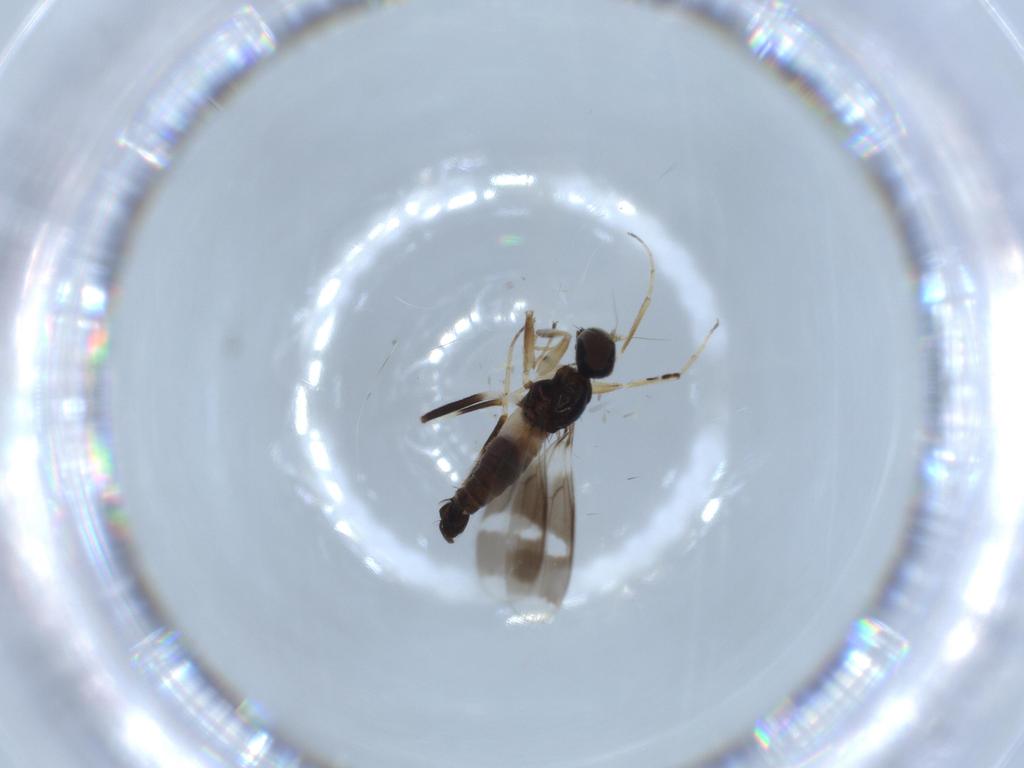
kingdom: Animalia
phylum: Arthropoda
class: Insecta
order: Diptera
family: Hybotidae
